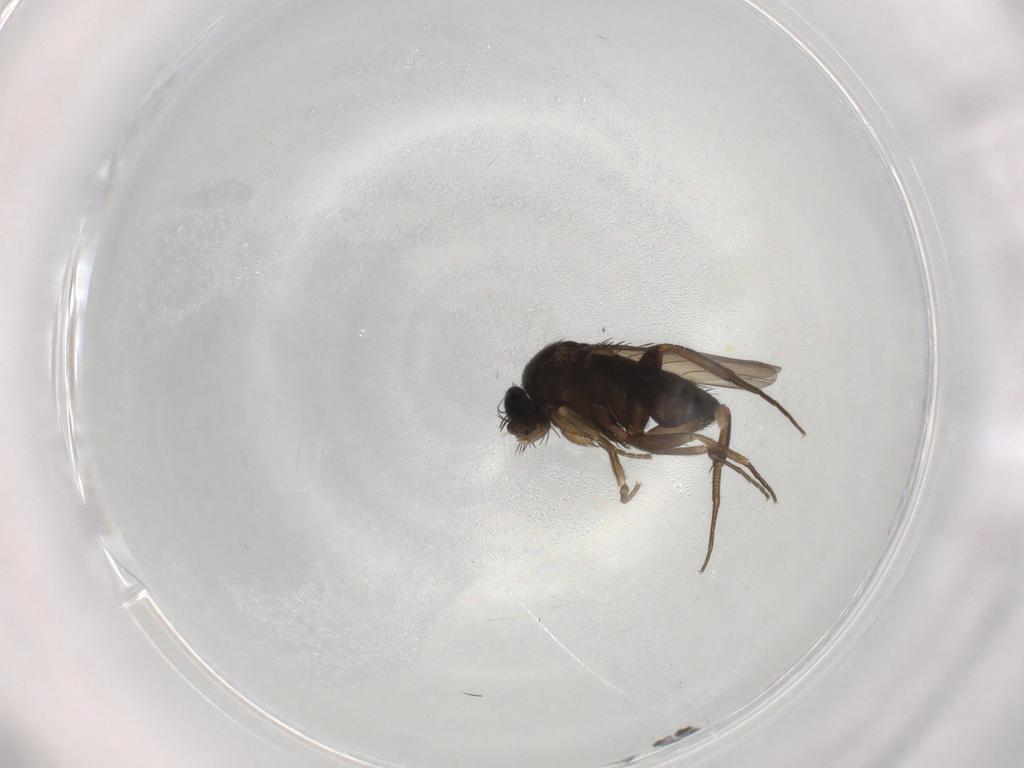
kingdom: Animalia
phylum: Arthropoda
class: Insecta
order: Diptera
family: Phoridae
